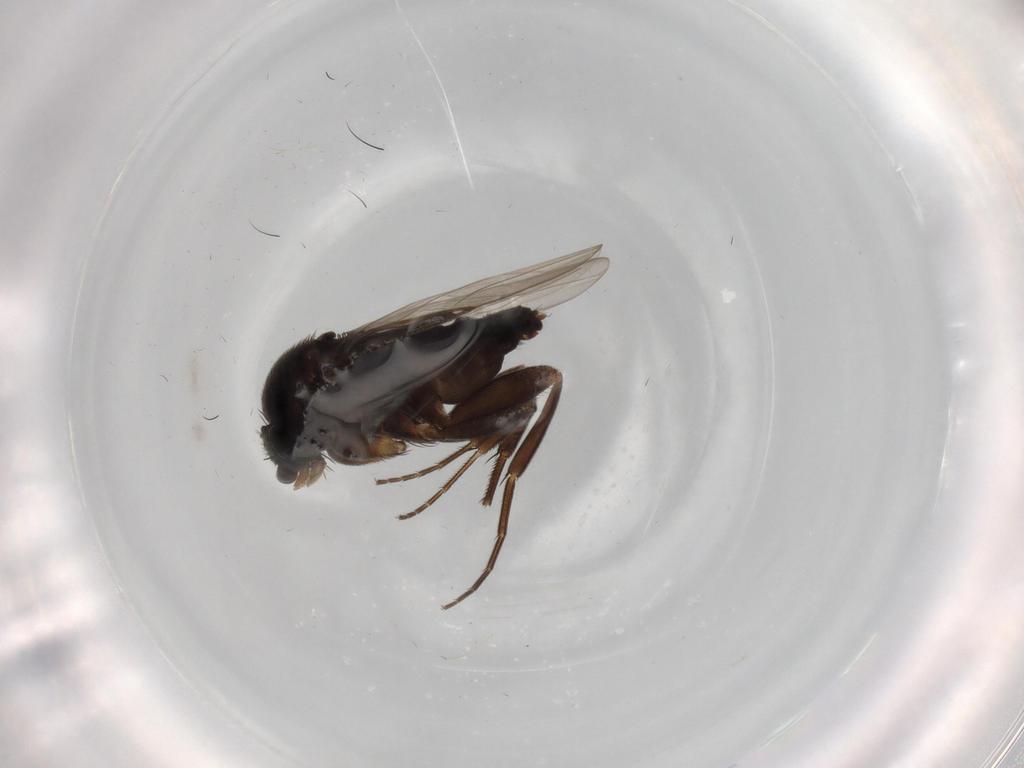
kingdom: Animalia
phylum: Arthropoda
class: Insecta
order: Diptera
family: Phoridae
